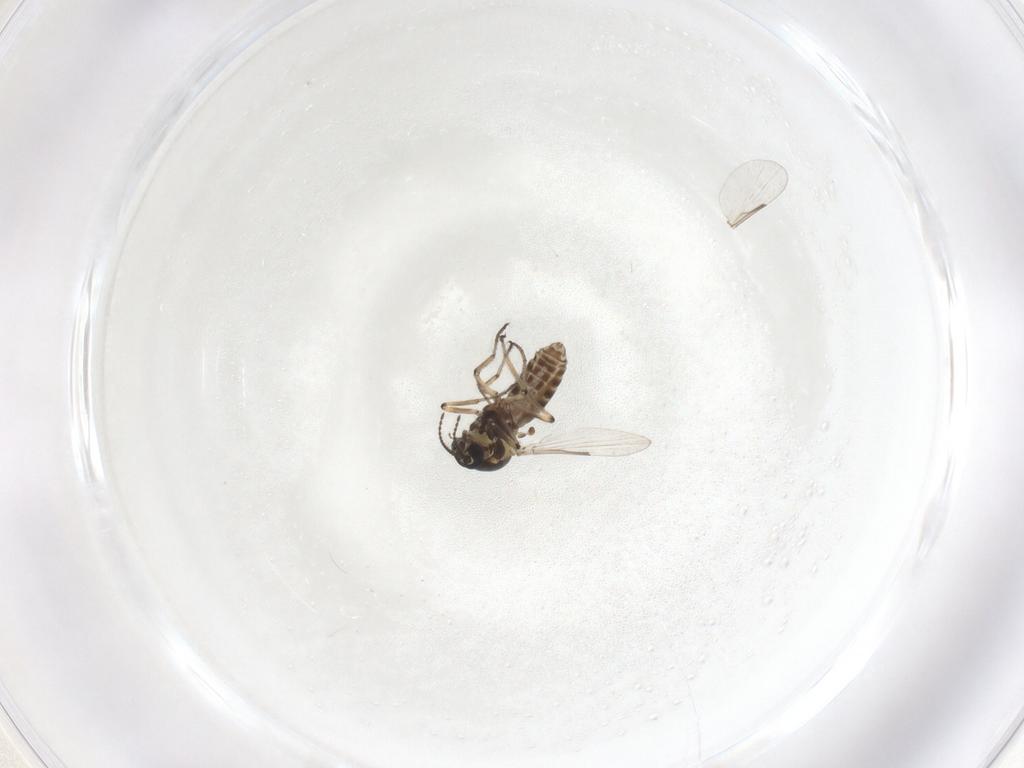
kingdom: Animalia
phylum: Arthropoda
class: Insecta
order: Diptera
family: Ceratopogonidae
